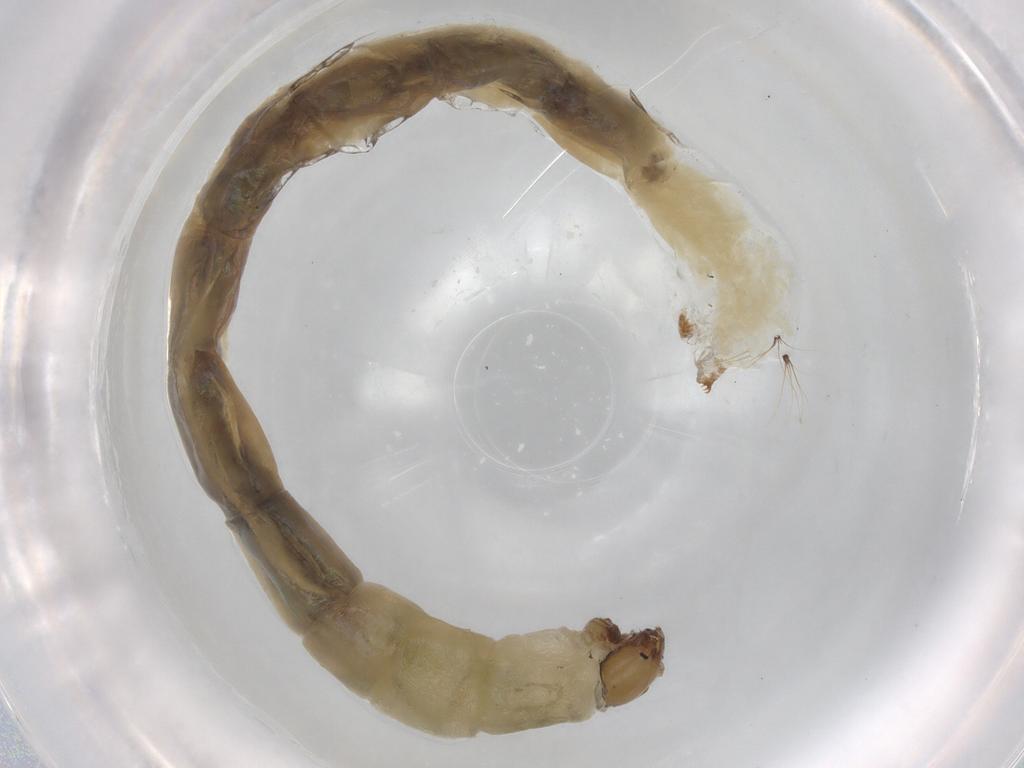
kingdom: Animalia
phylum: Arthropoda
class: Insecta
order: Diptera
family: Chironomidae
